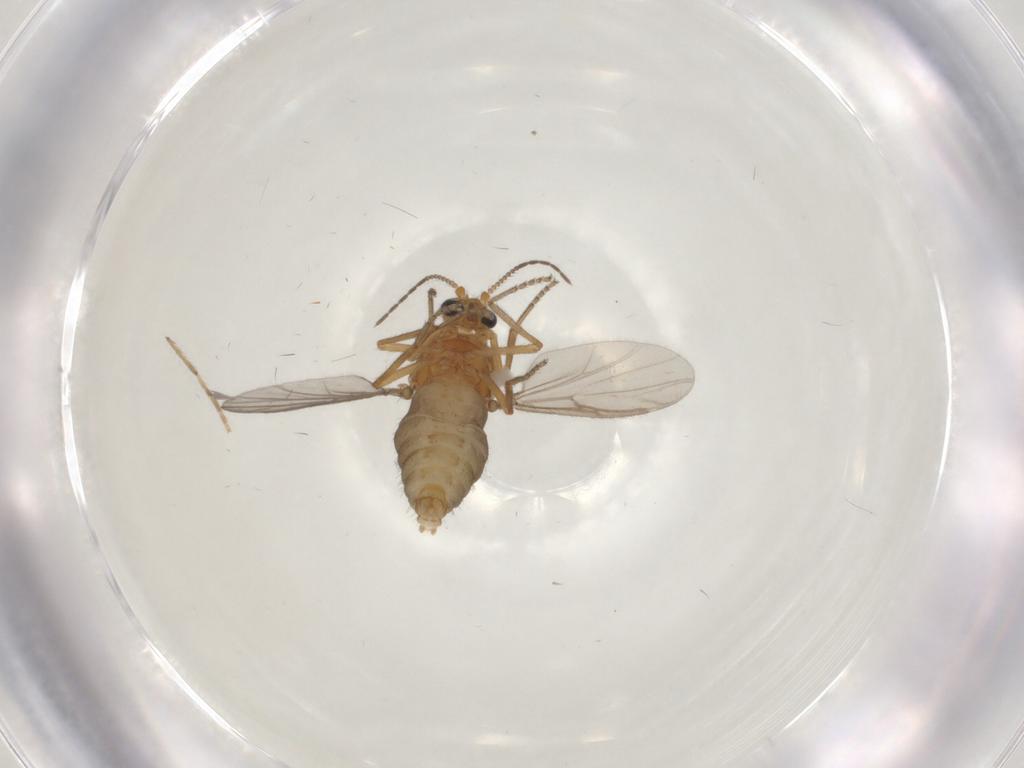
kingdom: Animalia
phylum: Arthropoda
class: Insecta
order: Diptera
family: Ceratopogonidae
